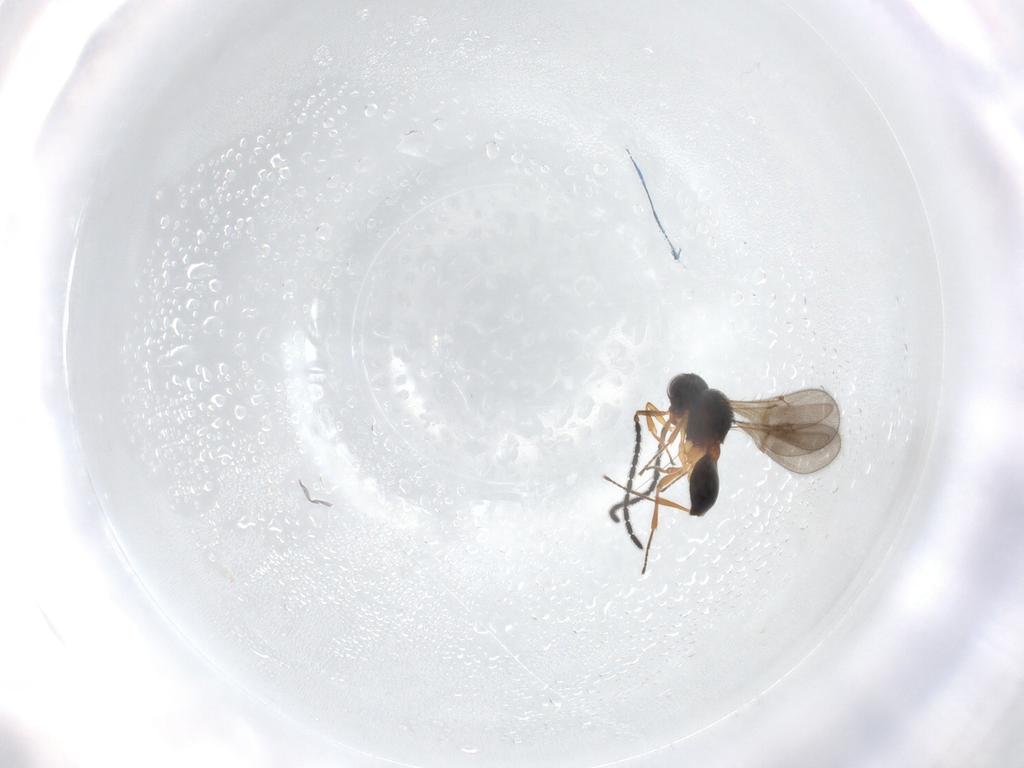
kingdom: Animalia
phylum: Arthropoda
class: Insecta
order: Hymenoptera
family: Scelionidae
